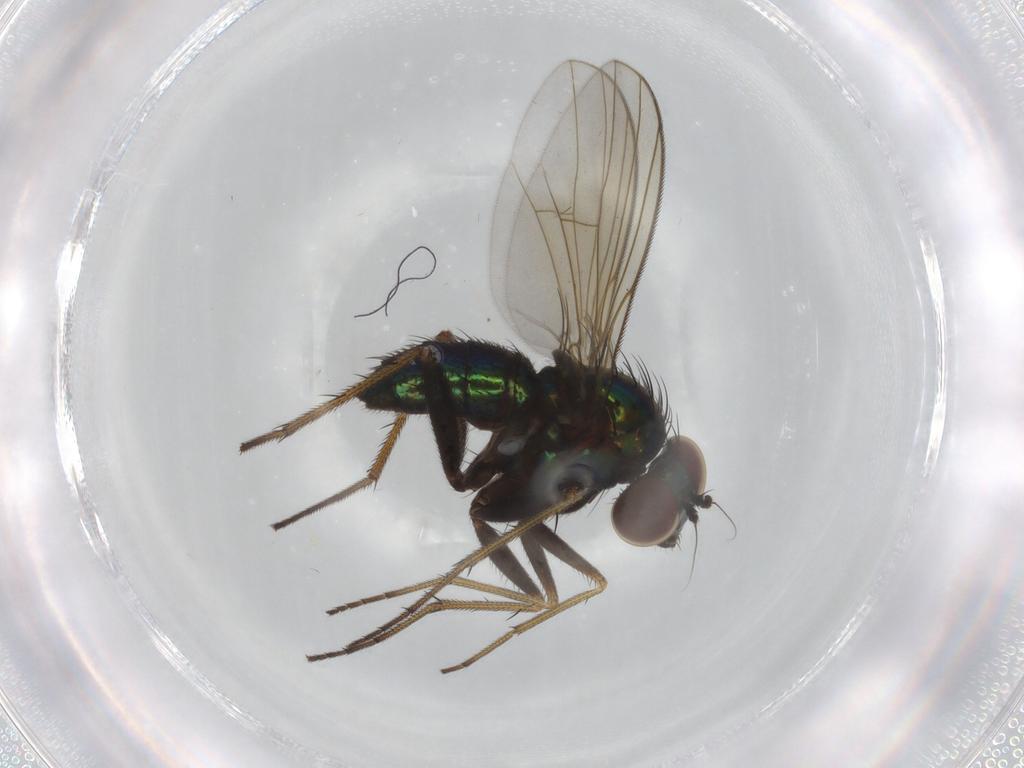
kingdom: Animalia
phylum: Arthropoda
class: Insecta
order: Diptera
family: Dolichopodidae
